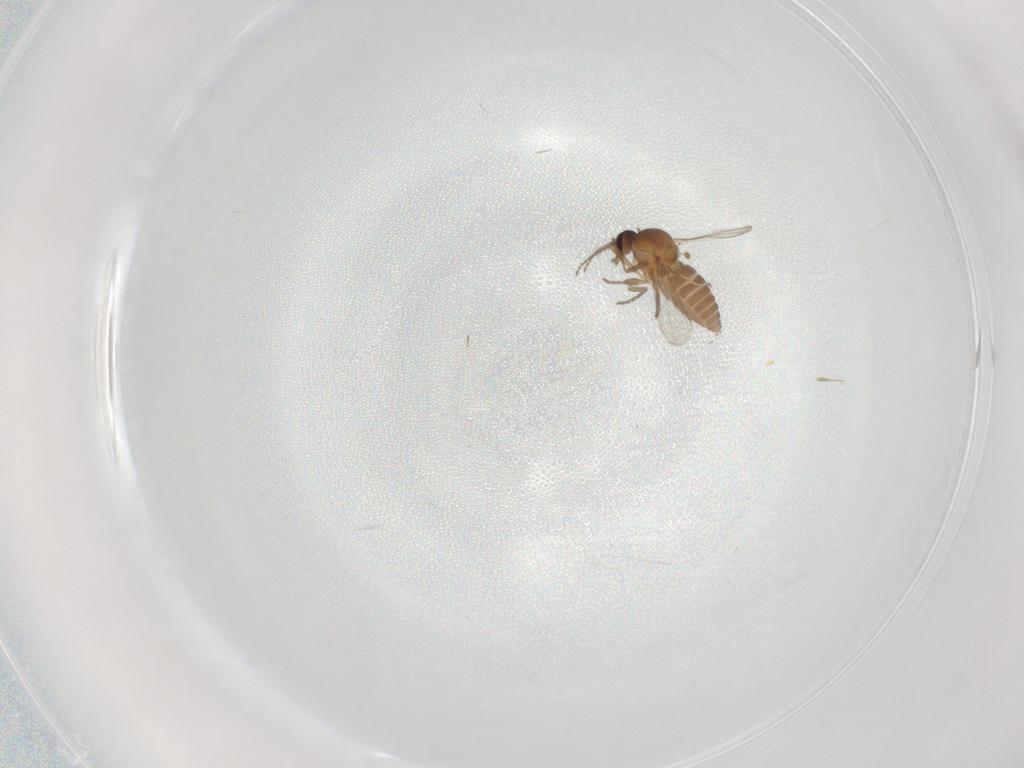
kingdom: Animalia
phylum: Arthropoda
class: Insecta
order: Diptera
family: Ceratopogonidae
